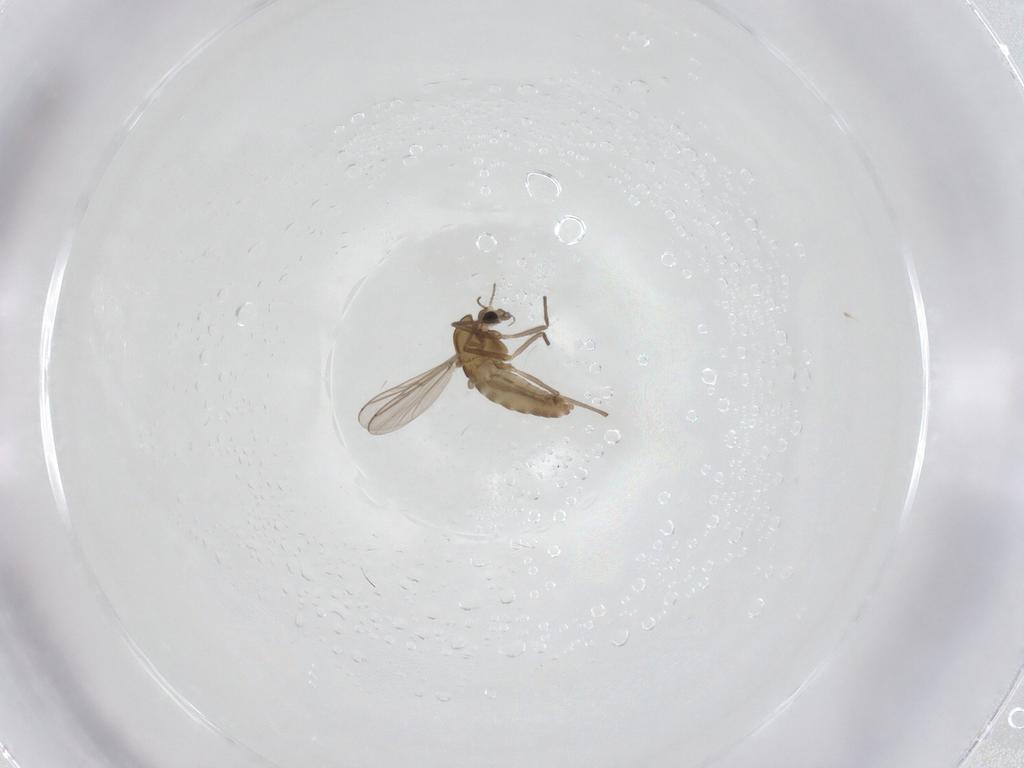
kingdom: Animalia
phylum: Arthropoda
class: Insecta
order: Diptera
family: Chironomidae
